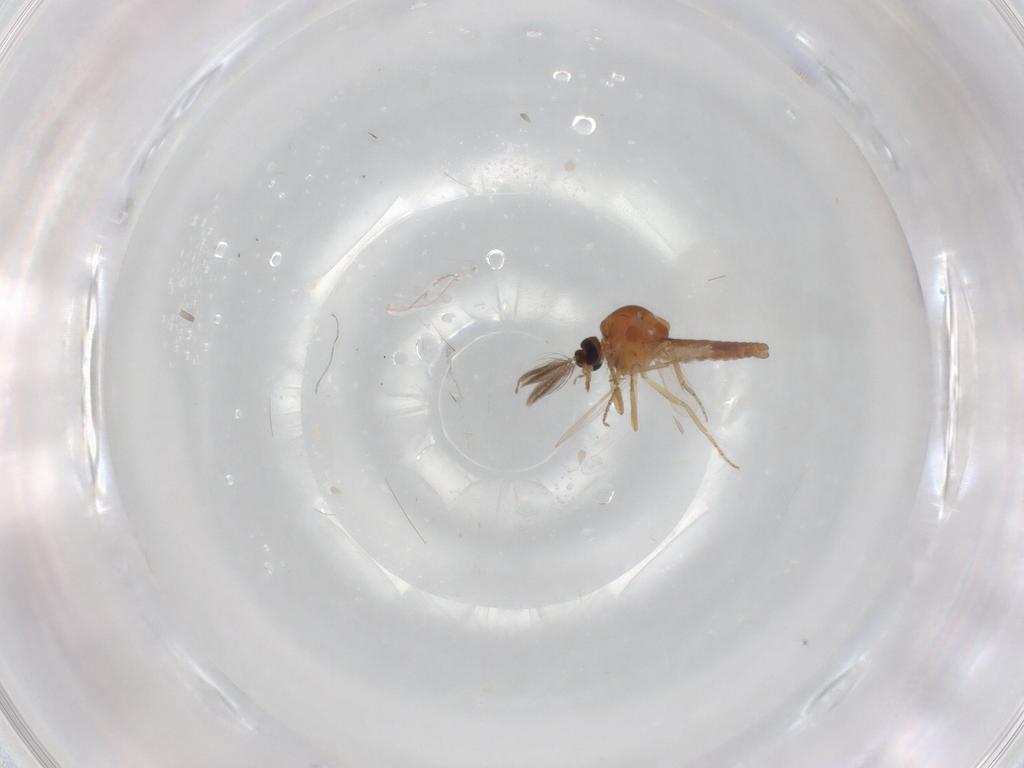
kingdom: Animalia
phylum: Arthropoda
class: Insecta
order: Diptera
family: Ceratopogonidae
